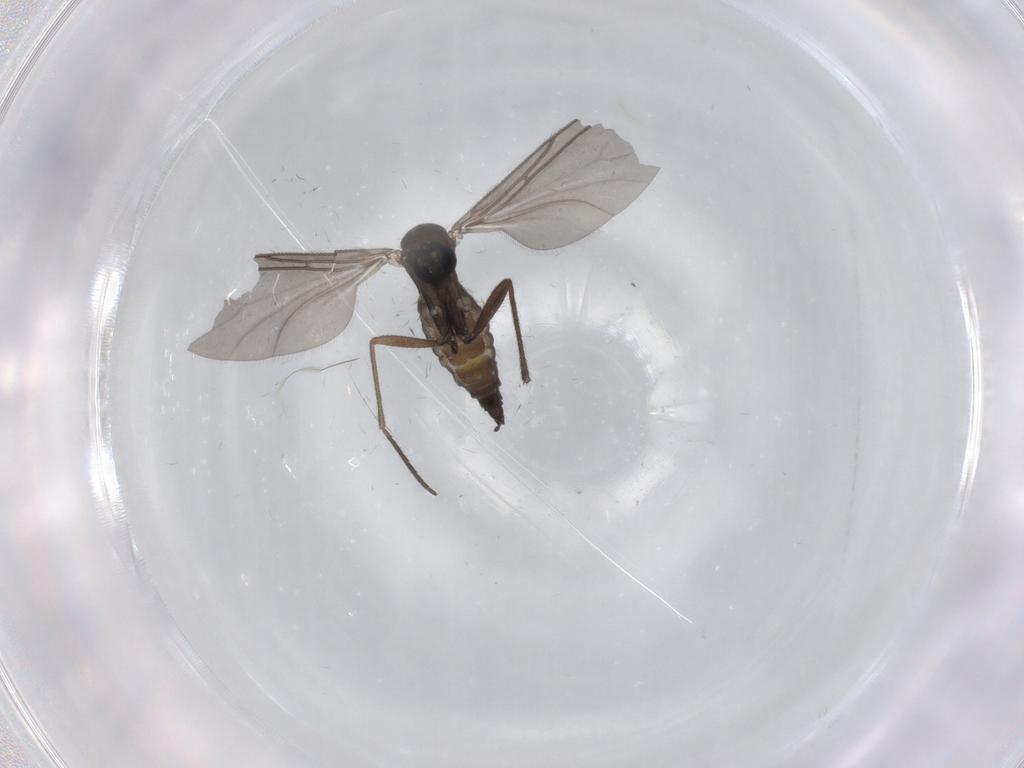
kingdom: Animalia
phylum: Arthropoda
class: Insecta
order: Diptera
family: Sciaridae
